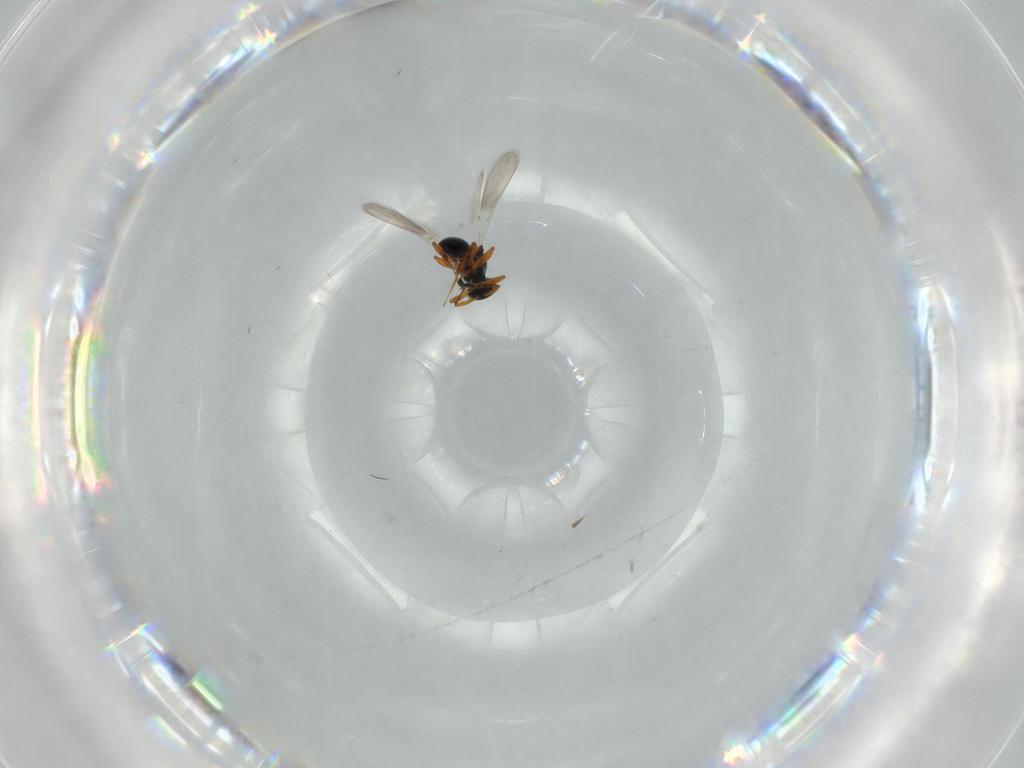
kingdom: Animalia
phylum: Arthropoda
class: Insecta
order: Hymenoptera
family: Platygastridae
